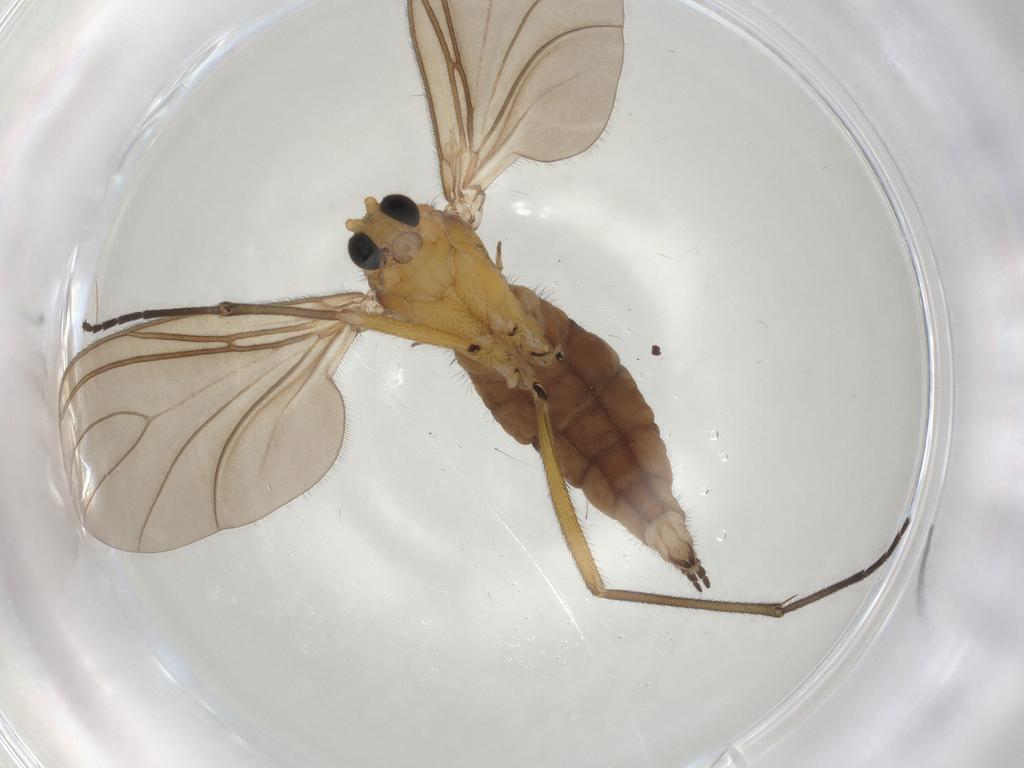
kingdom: Animalia
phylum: Arthropoda
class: Insecta
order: Diptera
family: Sciaridae
